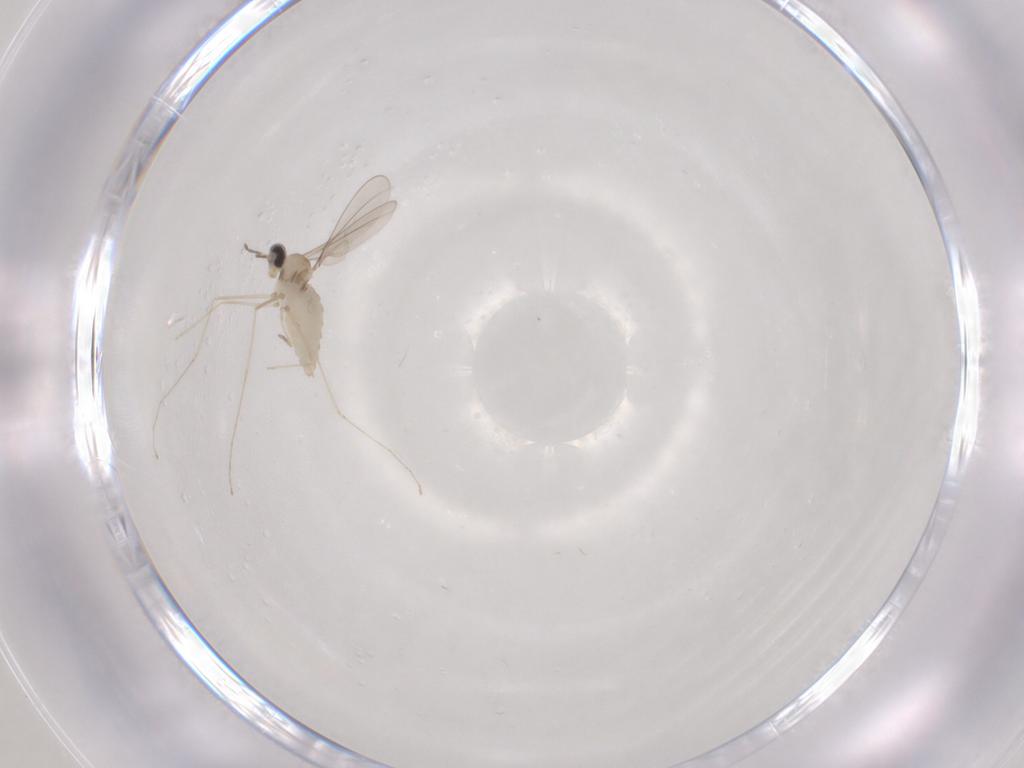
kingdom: Animalia
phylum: Arthropoda
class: Insecta
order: Diptera
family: Cecidomyiidae
